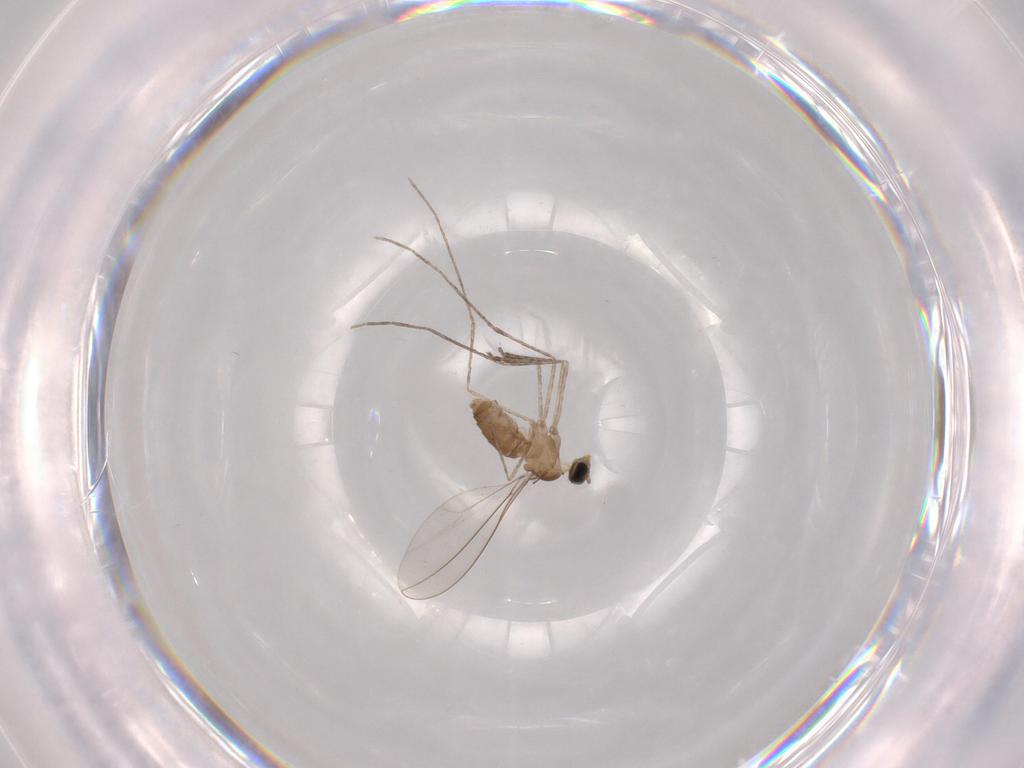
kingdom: Animalia
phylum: Arthropoda
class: Insecta
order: Diptera
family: Cecidomyiidae
